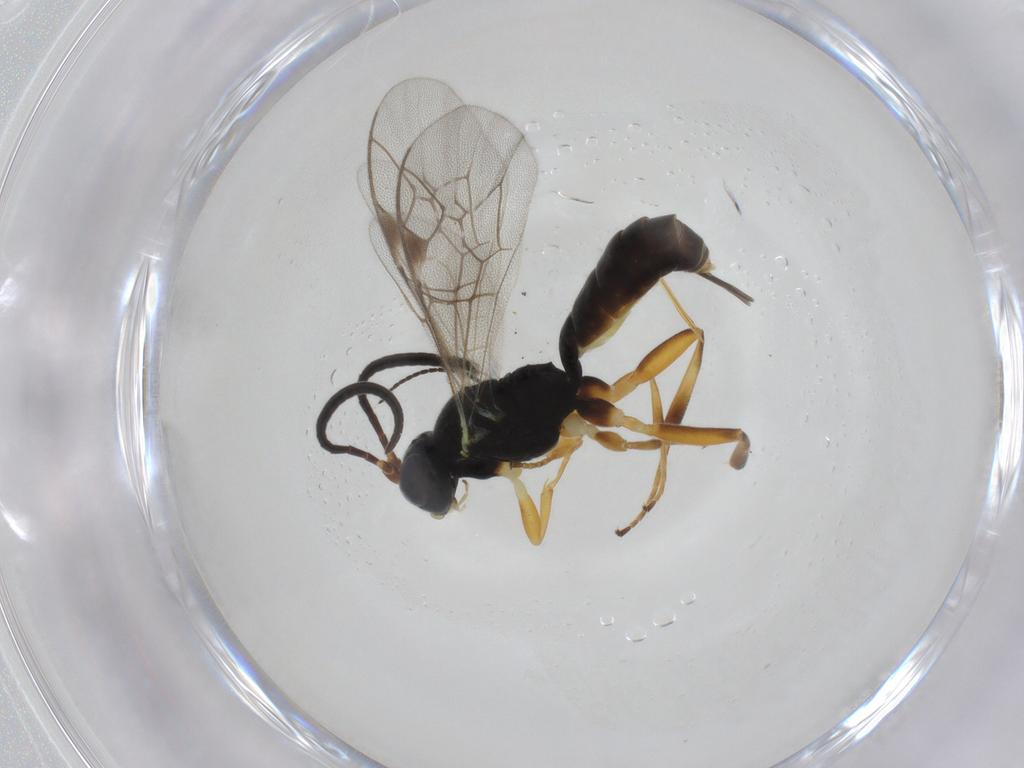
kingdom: Animalia
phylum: Arthropoda
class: Insecta
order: Hymenoptera
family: Ichneumonidae
